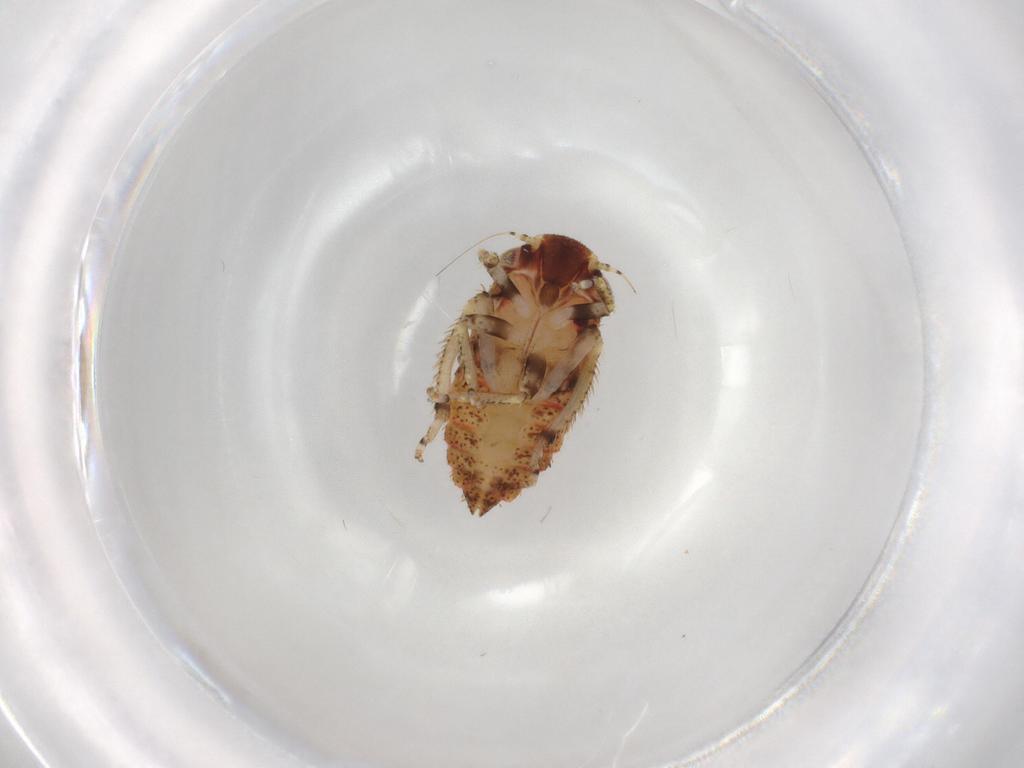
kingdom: Animalia
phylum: Arthropoda
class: Insecta
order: Hemiptera
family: Cicadellidae
